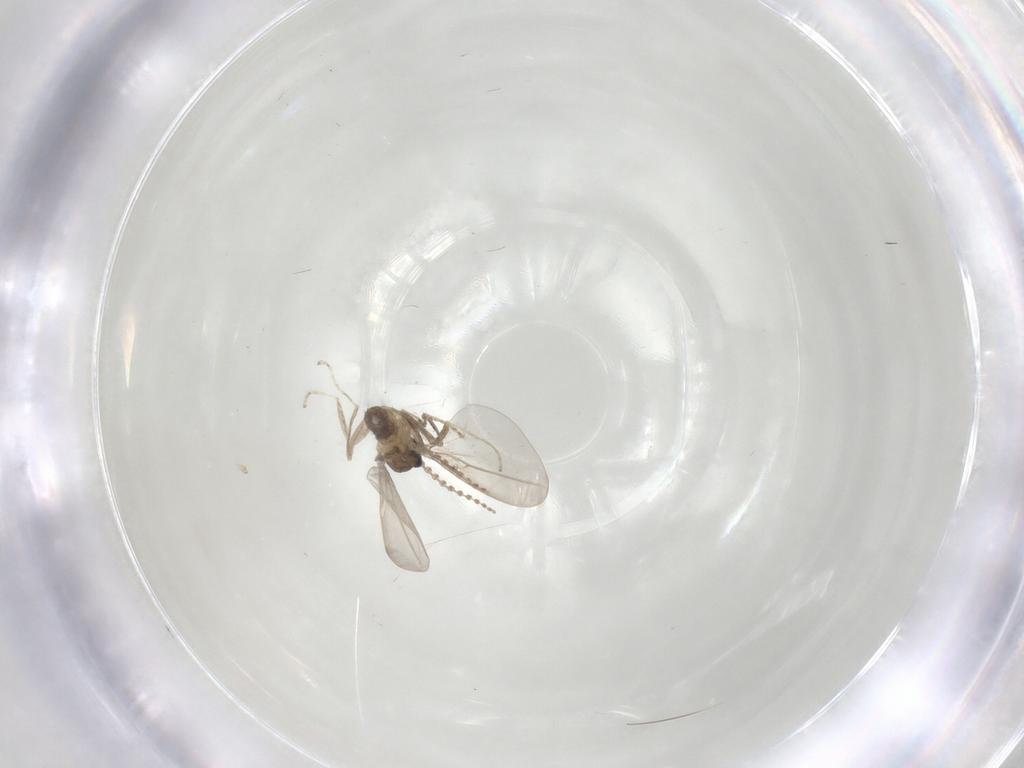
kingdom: Animalia
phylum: Arthropoda
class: Insecta
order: Diptera
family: Cecidomyiidae
